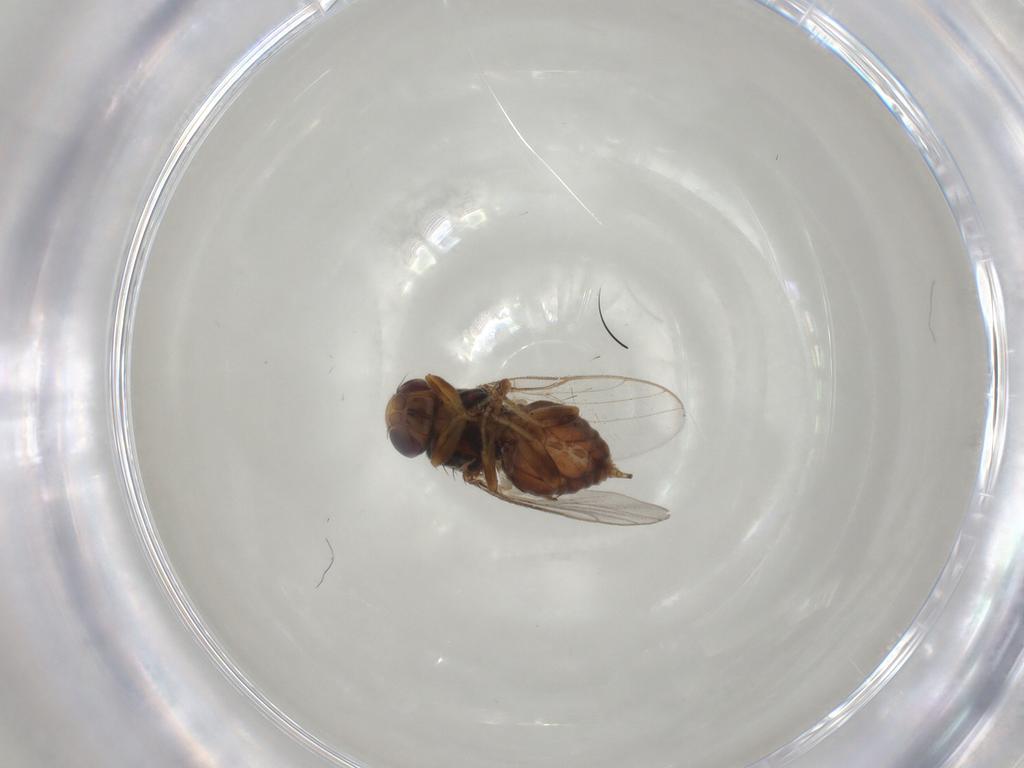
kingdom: Animalia
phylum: Arthropoda
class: Insecta
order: Diptera
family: Chloropidae
